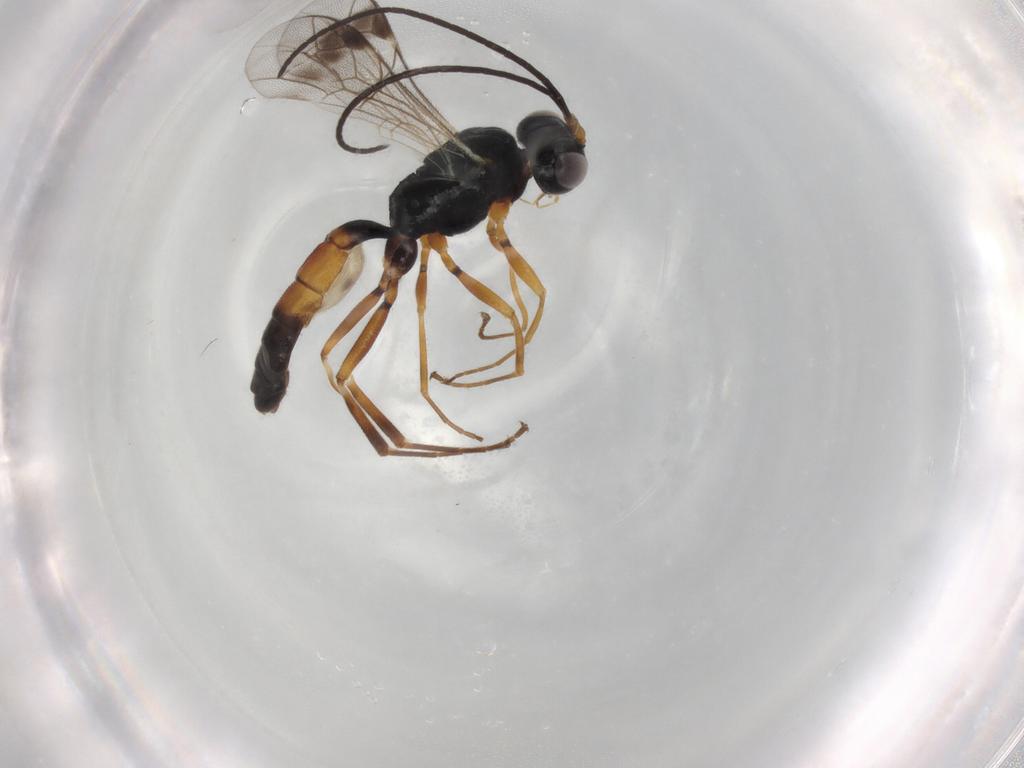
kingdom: Animalia
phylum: Arthropoda
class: Insecta
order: Hymenoptera
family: Ichneumonidae
